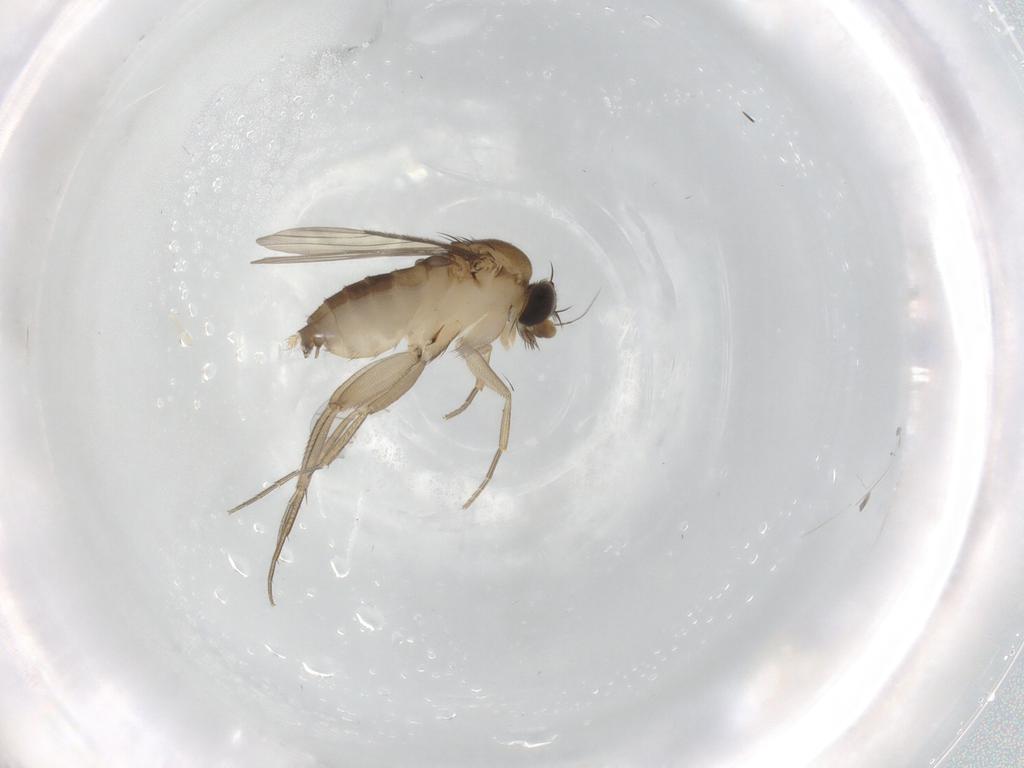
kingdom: Animalia
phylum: Arthropoda
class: Insecta
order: Diptera
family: Phoridae
